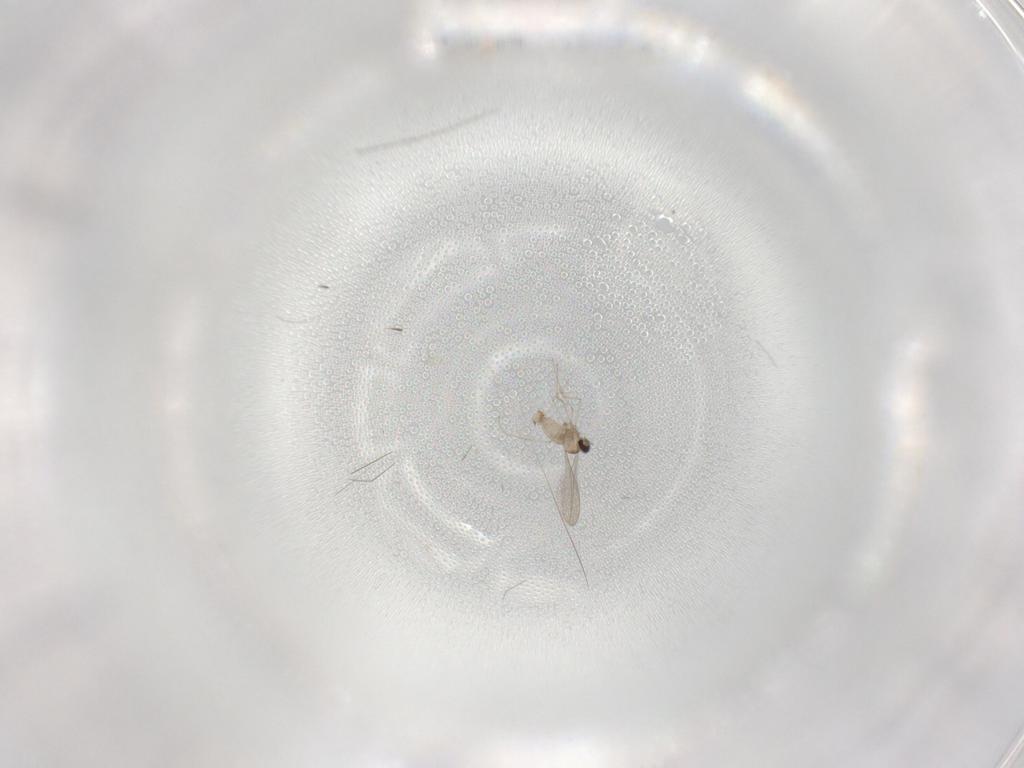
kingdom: Animalia
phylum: Arthropoda
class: Insecta
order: Diptera
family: Cecidomyiidae
